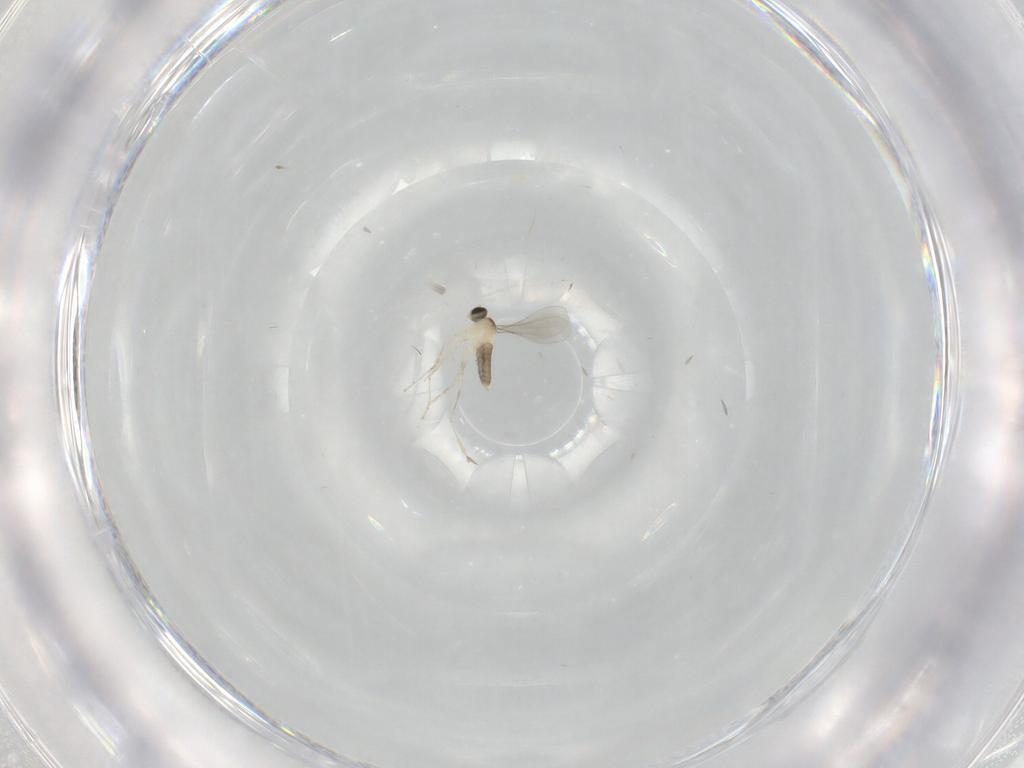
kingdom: Animalia
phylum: Arthropoda
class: Insecta
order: Diptera
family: Cecidomyiidae
